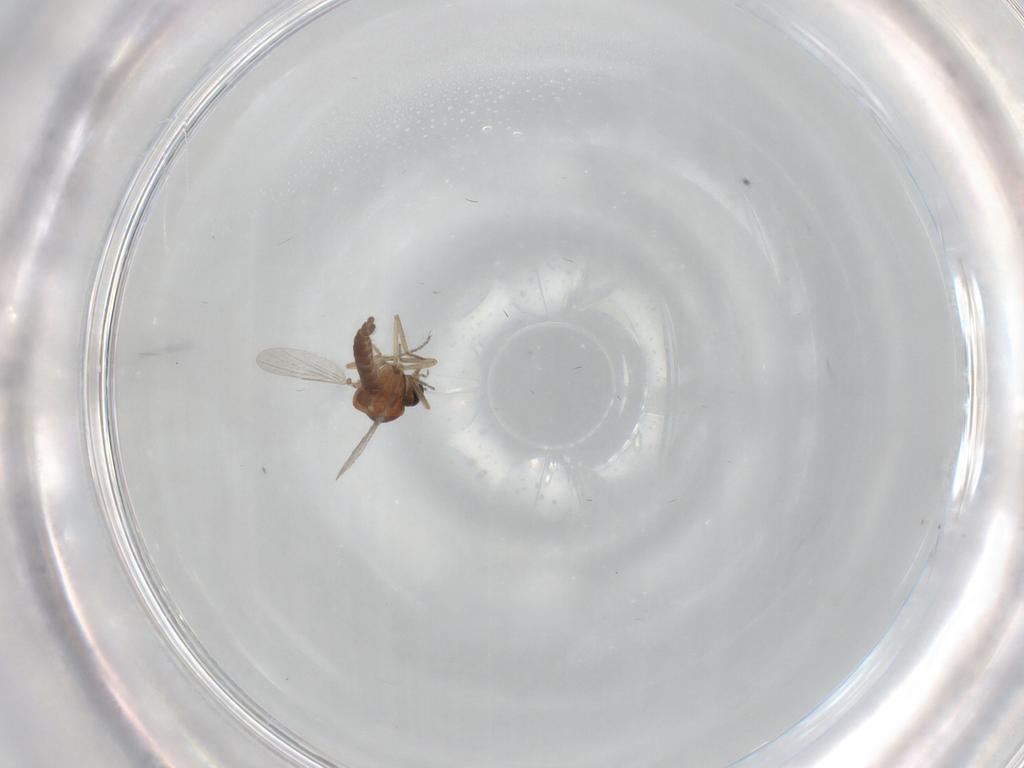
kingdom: Animalia
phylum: Arthropoda
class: Insecta
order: Diptera
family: Ceratopogonidae
